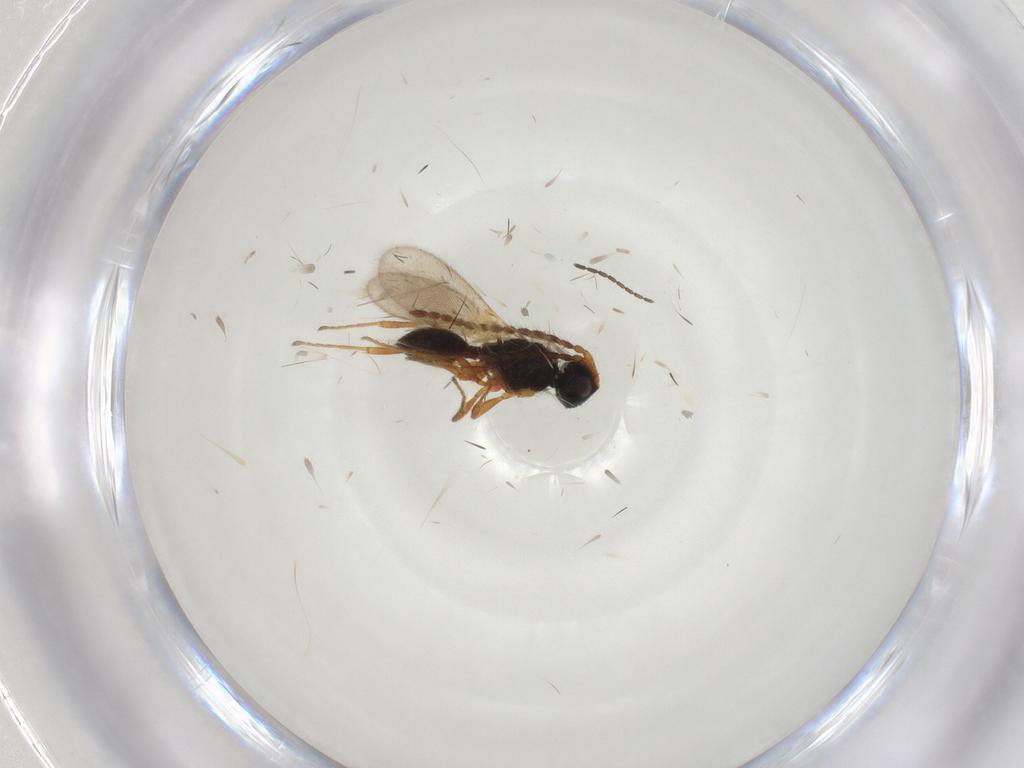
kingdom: Animalia
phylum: Arthropoda
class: Insecta
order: Hymenoptera
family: Diapriidae
